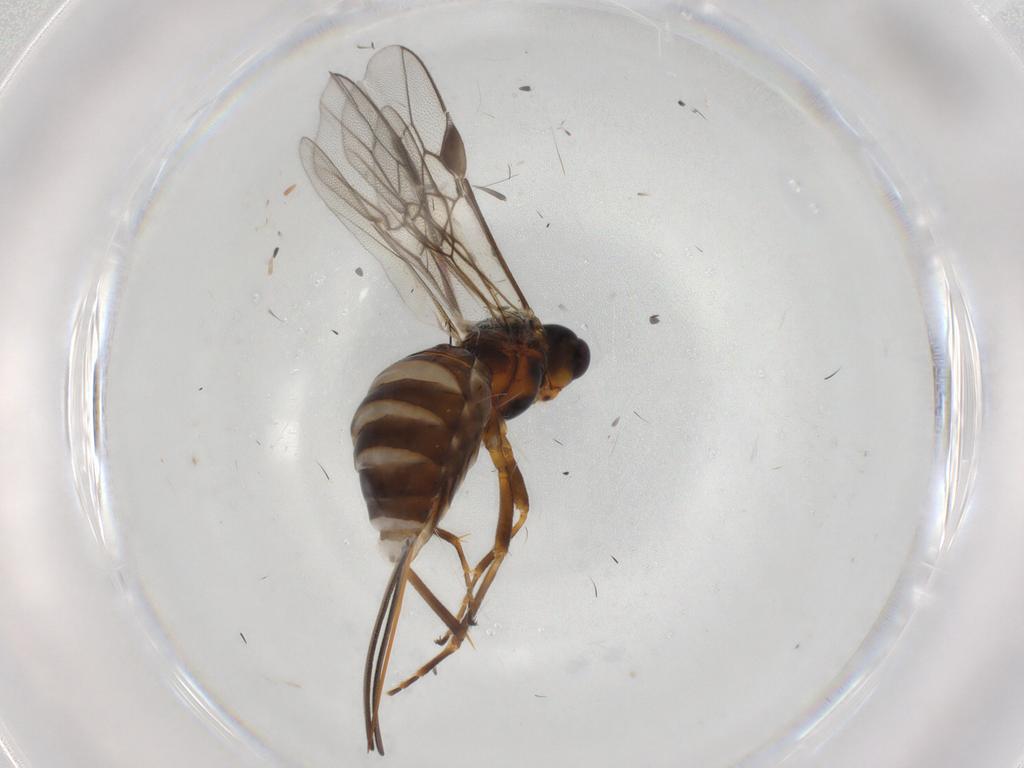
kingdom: Animalia
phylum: Arthropoda
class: Insecta
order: Hymenoptera
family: Braconidae
